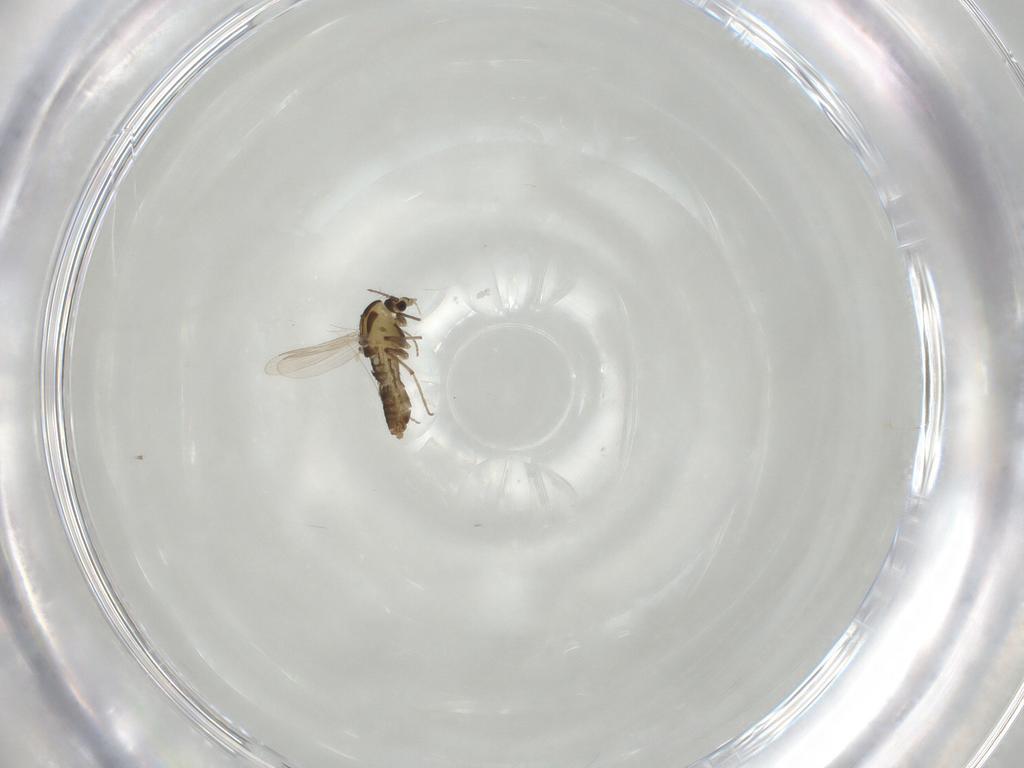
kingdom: Animalia
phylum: Arthropoda
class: Insecta
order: Diptera
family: Chironomidae
